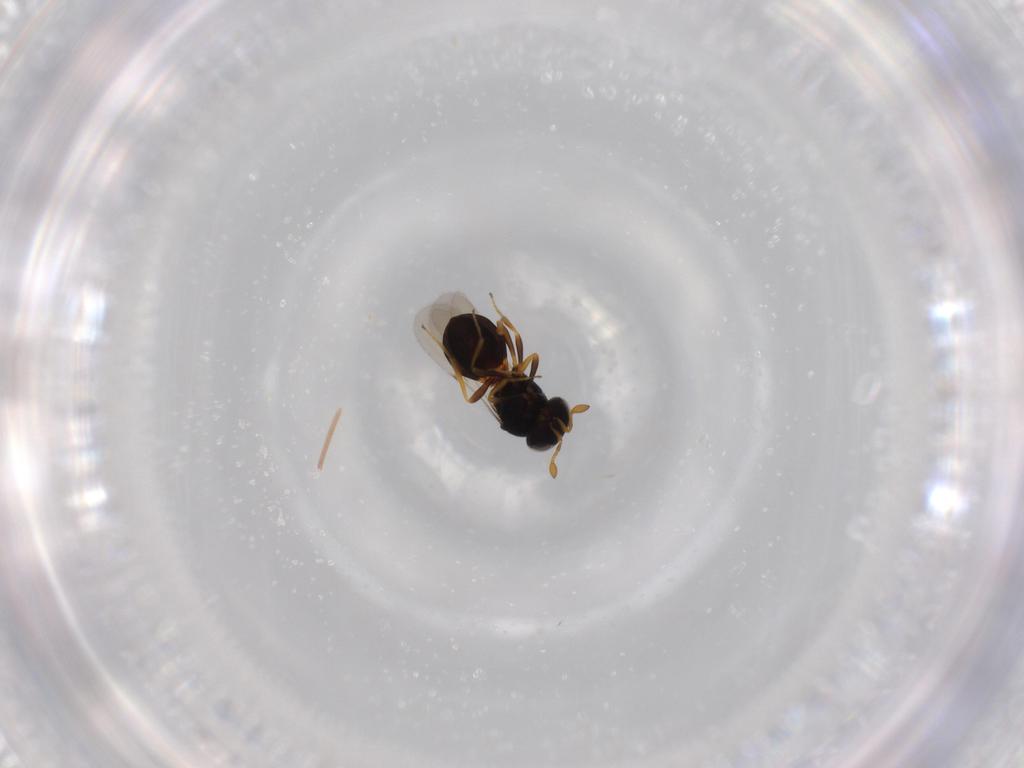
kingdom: Animalia
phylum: Arthropoda
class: Insecta
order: Hymenoptera
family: Scelionidae
